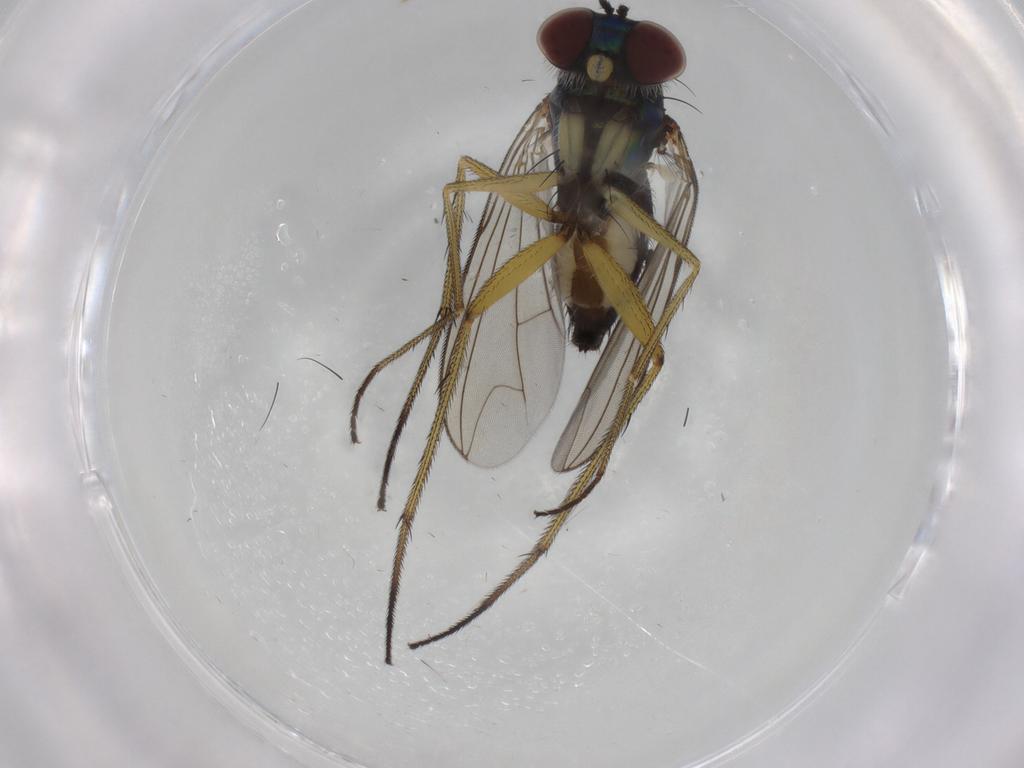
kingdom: Animalia
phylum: Arthropoda
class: Insecta
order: Diptera
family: Dolichopodidae
